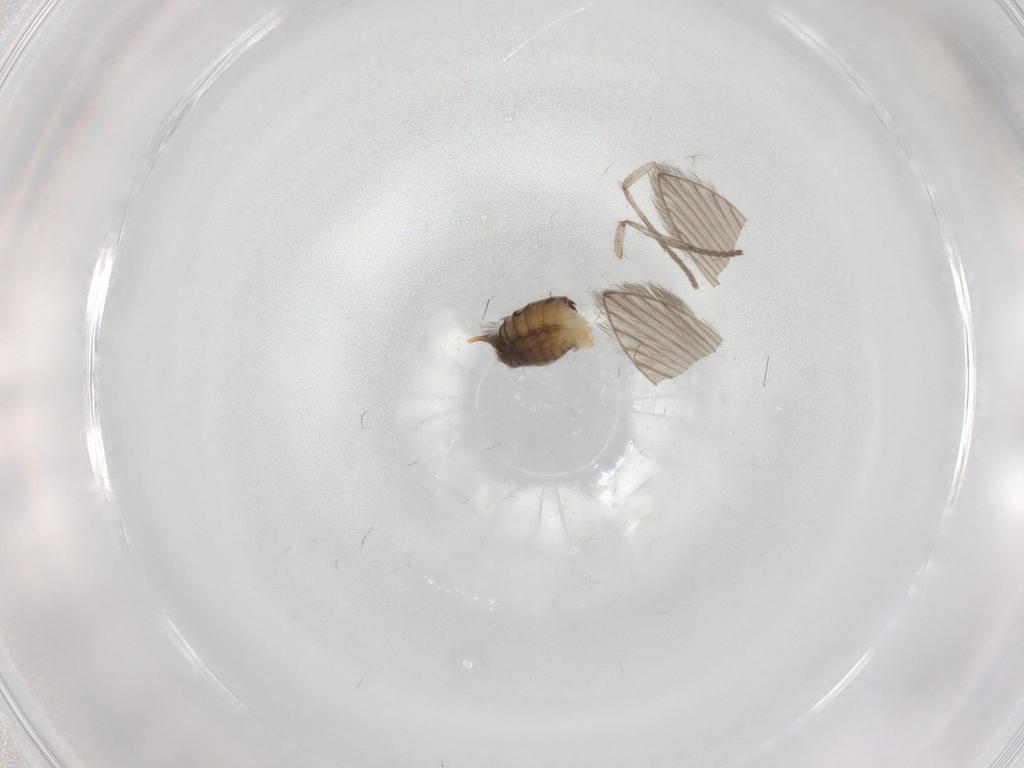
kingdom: Animalia
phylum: Arthropoda
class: Insecta
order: Diptera
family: Psychodidae
